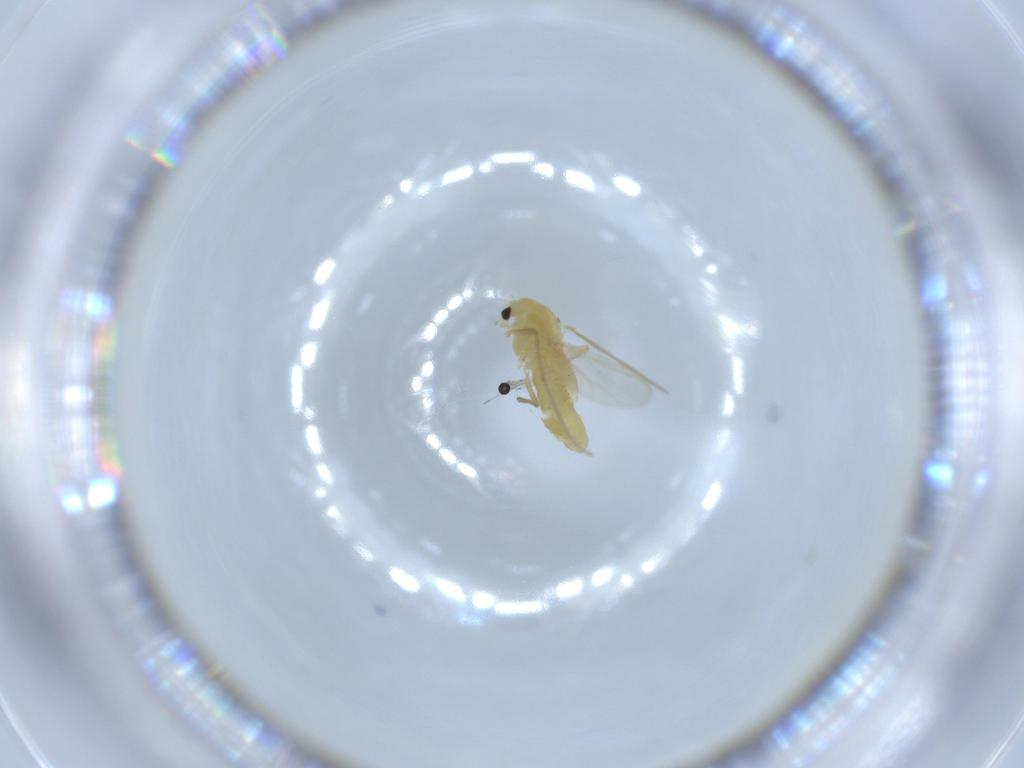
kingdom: Animalia
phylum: Arthropoda
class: Insecta
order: Diptera
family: Chironomidae
